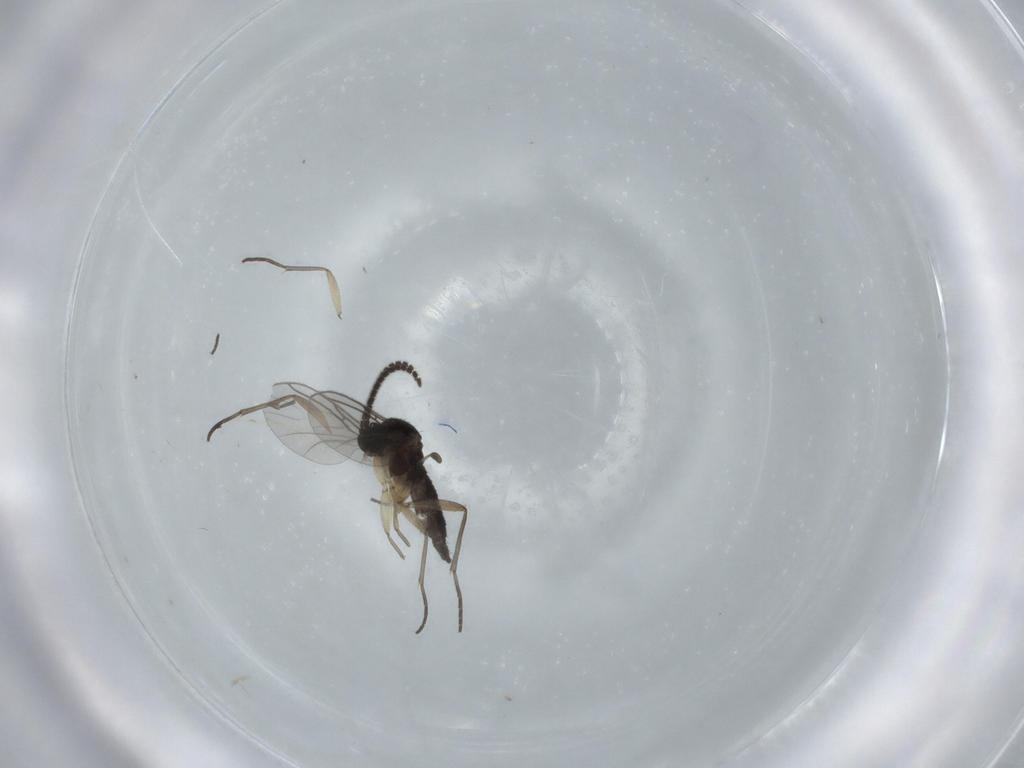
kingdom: Animalia
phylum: Arthropoda
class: Insecta
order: Diptera
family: Sciaridae
